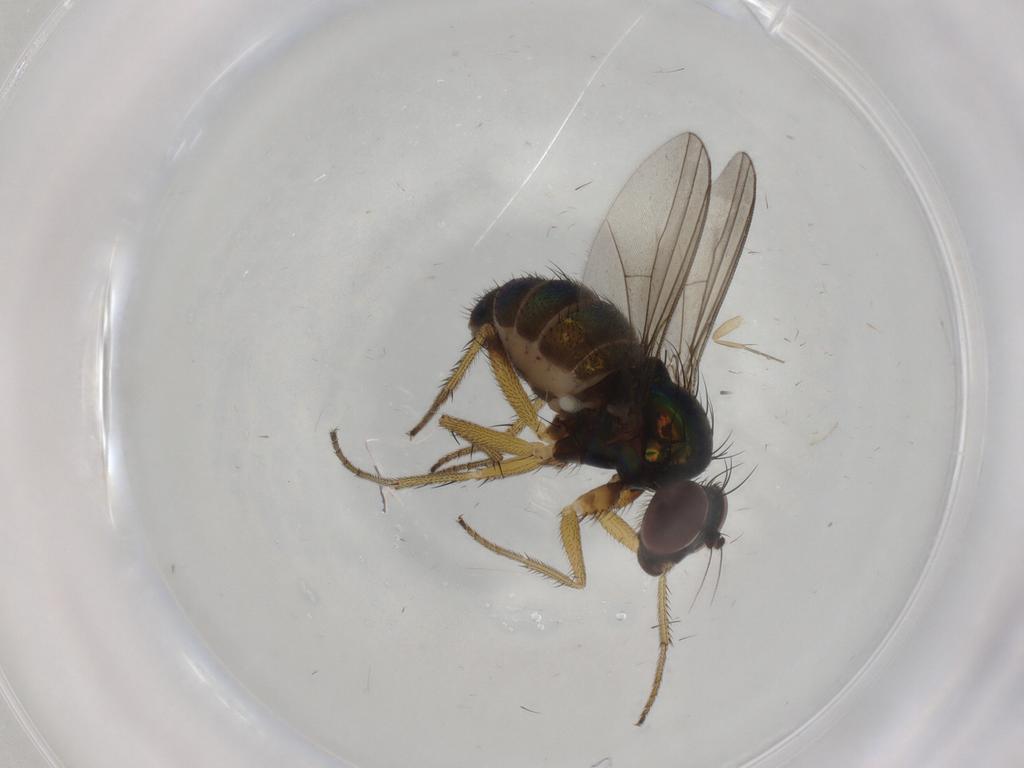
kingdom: Animalia
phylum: Arthropoda
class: Insecta
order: Diptera
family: Dolichopodidae
